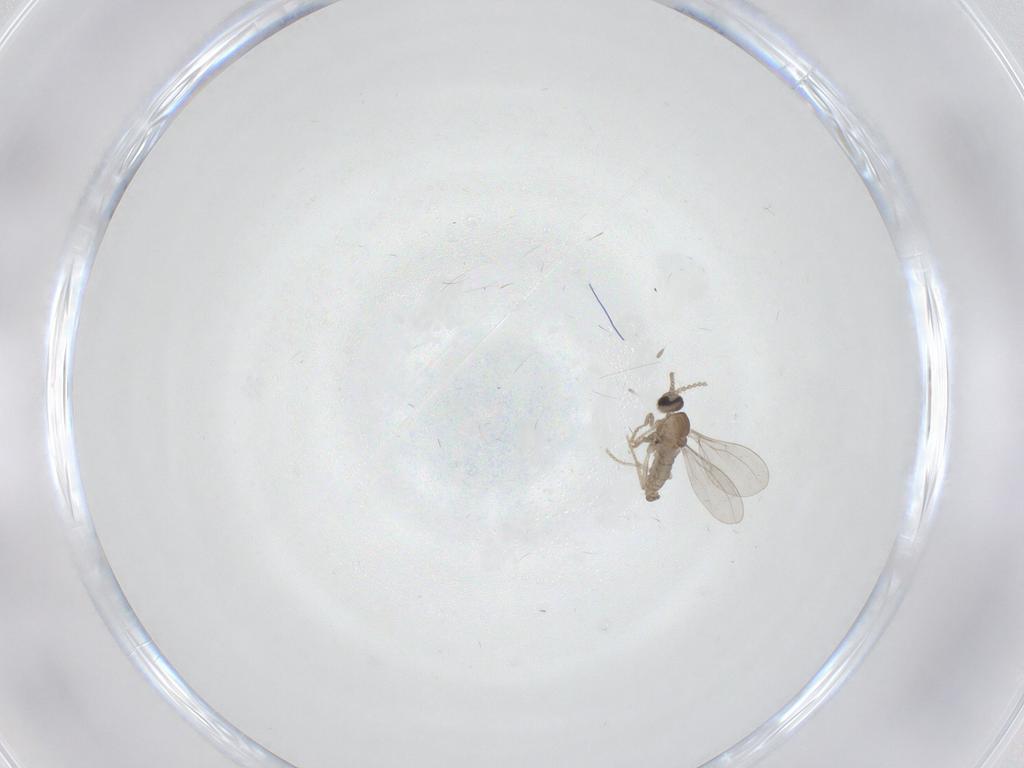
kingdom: Animalia
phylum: Arthropoda
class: Insecta
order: Diptera
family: Cecidomyiidae
